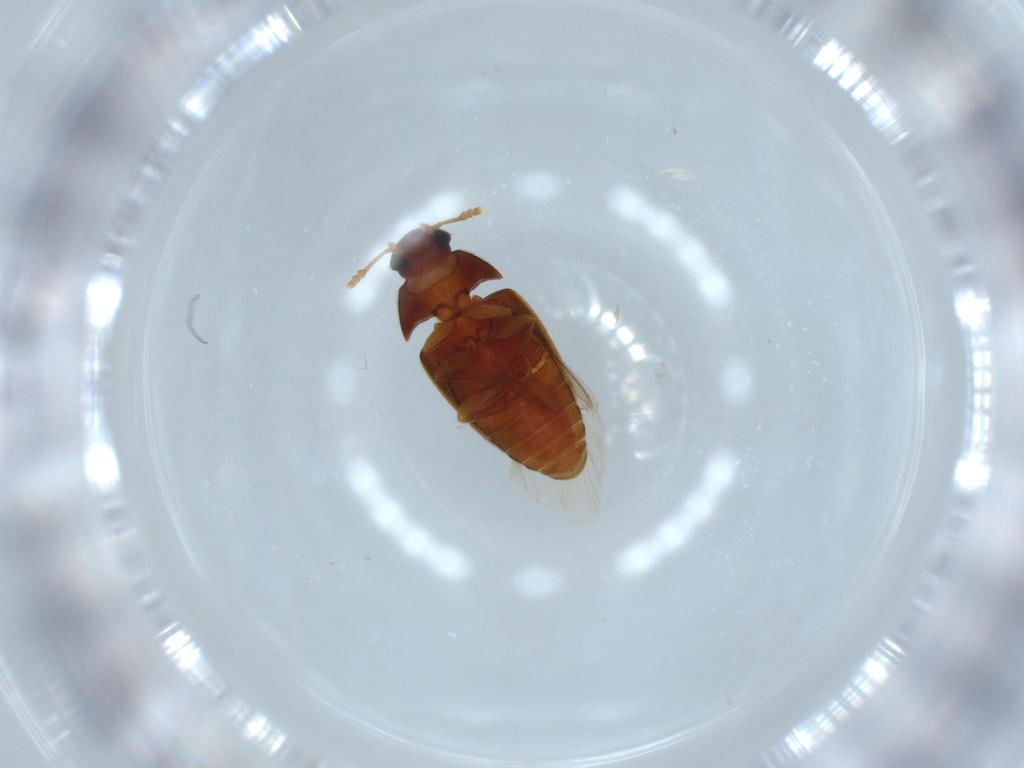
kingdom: Animalia
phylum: Arthropoda
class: Insecta
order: Coleoptera
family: Mycetophagidae
